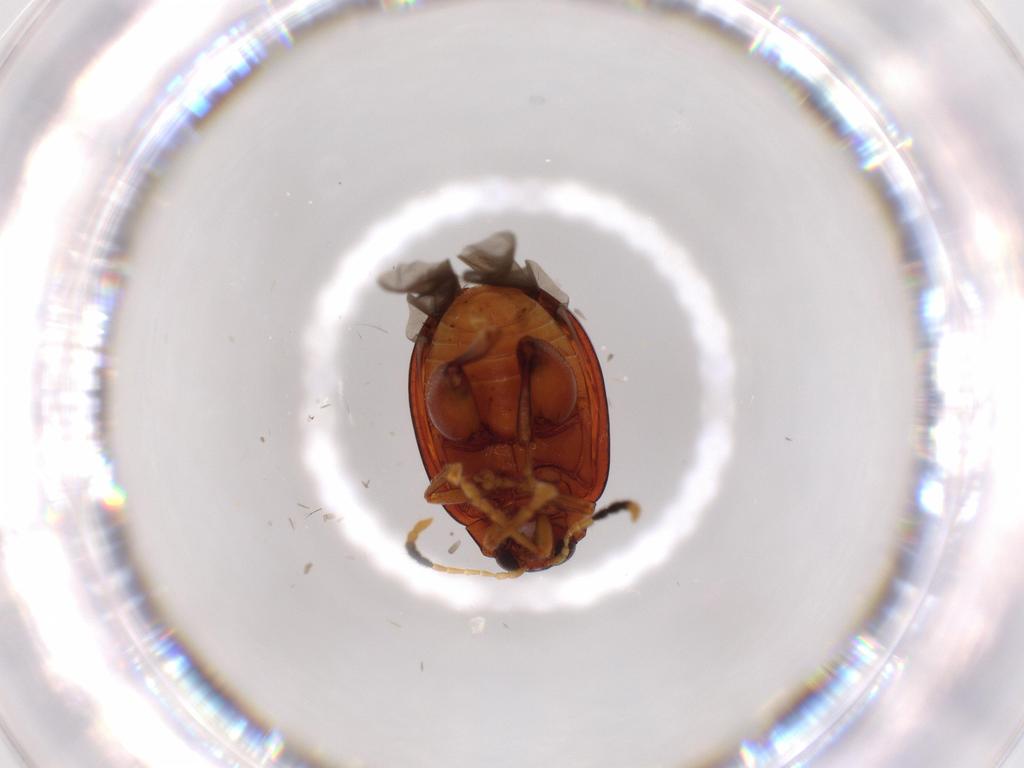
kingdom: Animalia
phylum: Arthropoda
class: Insecta
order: Coleoptera
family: Chrysomelidae
